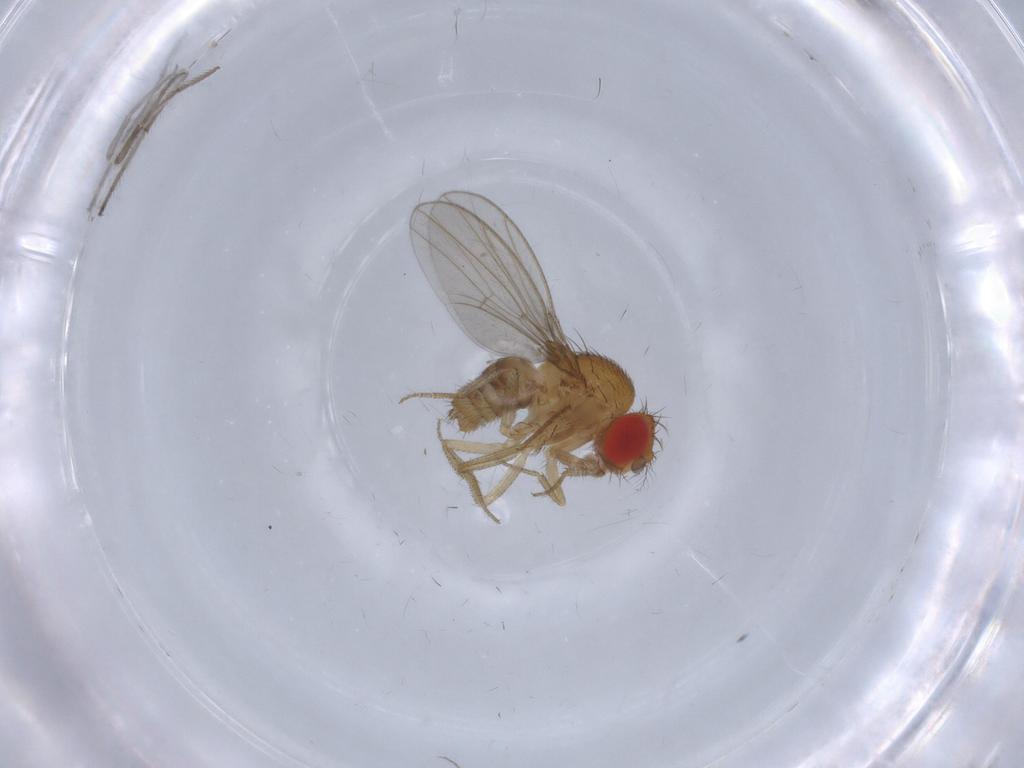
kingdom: Animalia
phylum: Arthropoda
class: Insecta
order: Diptera
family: Drosophilidae
